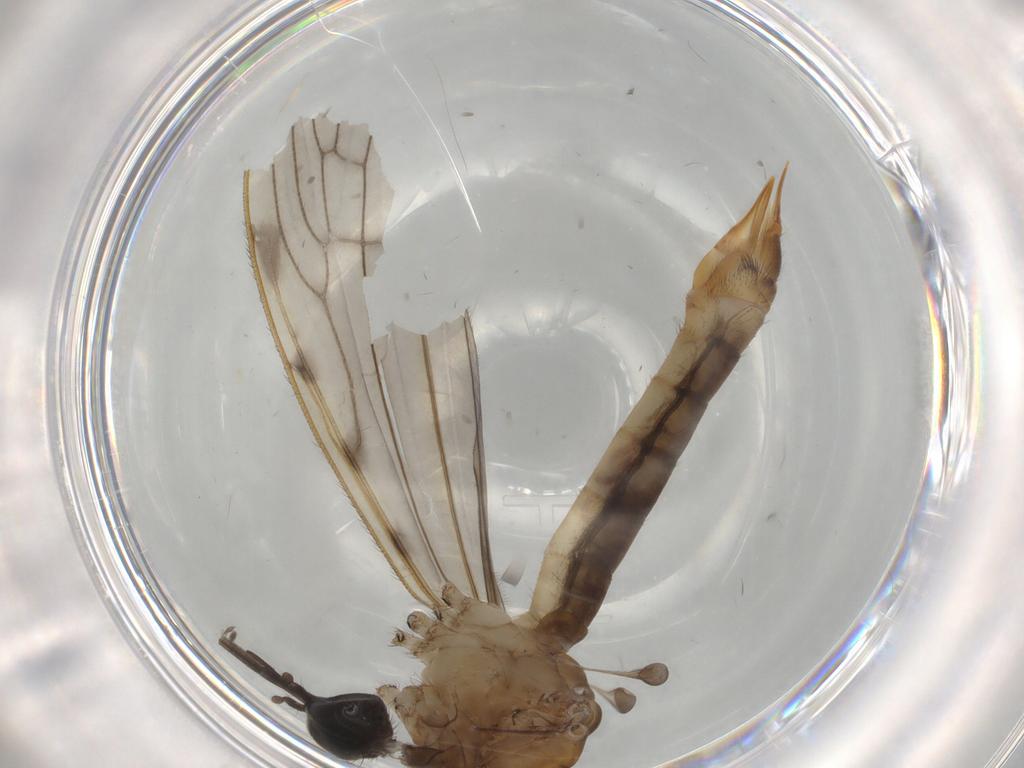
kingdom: Animalia
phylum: Arthropoda
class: Insecta
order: Diptera
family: Cecidomyiidae
